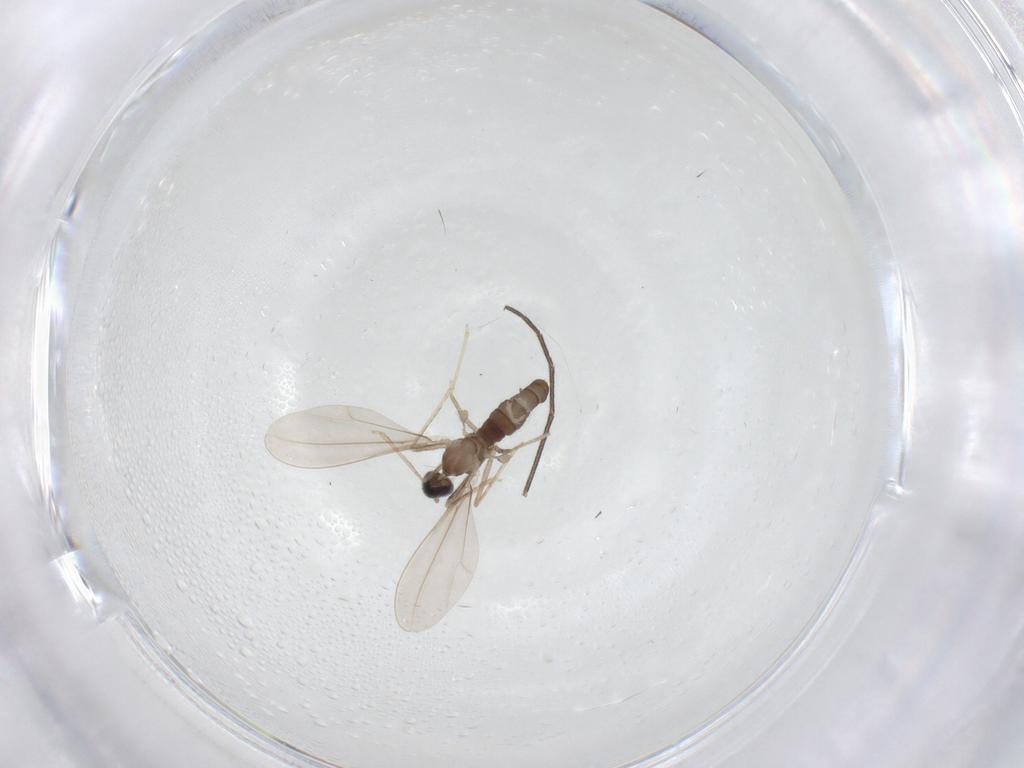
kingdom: Animalia
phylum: Arthropoda
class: Insecta
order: Diptera
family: Cecidomyiidae
